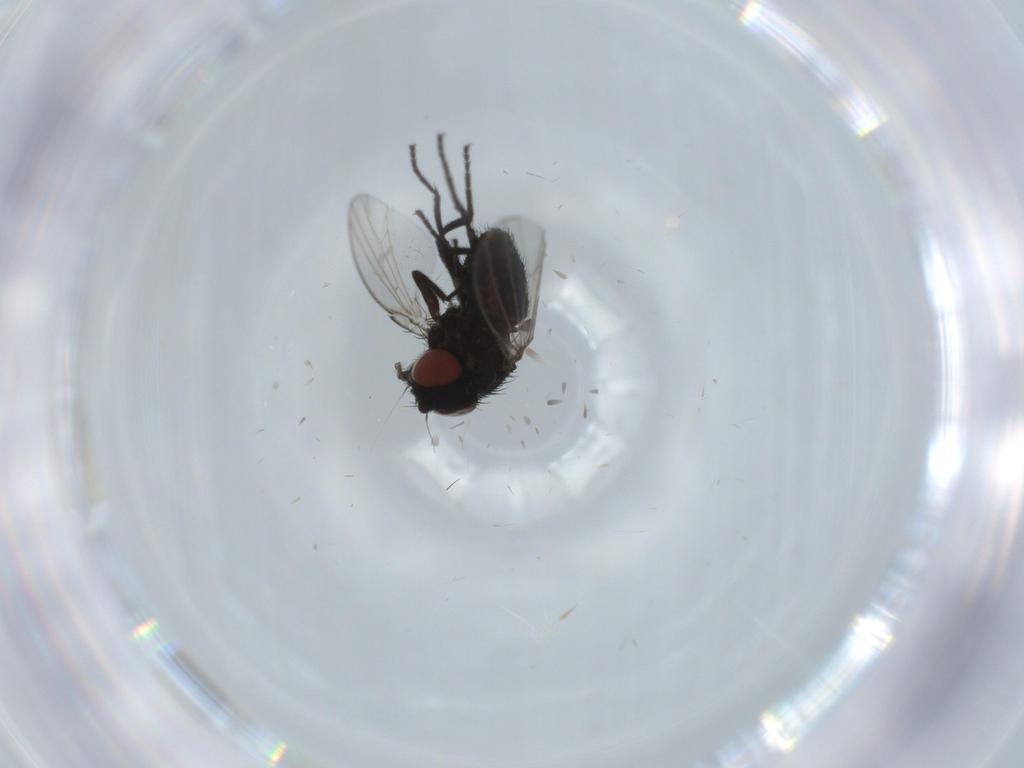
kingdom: Animalia
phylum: Arthropoda
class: Insecta
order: Diptera
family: Milichiidae
